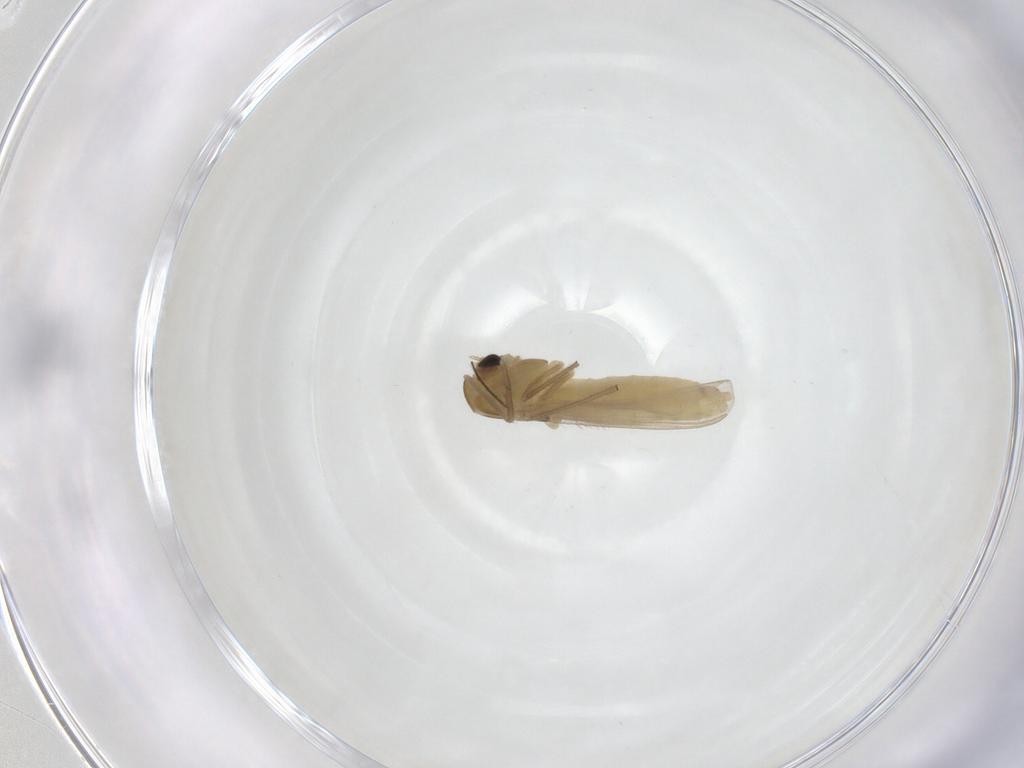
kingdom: Animalia
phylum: Arthropoda
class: Insecta
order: Diptera
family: Chironomidae
